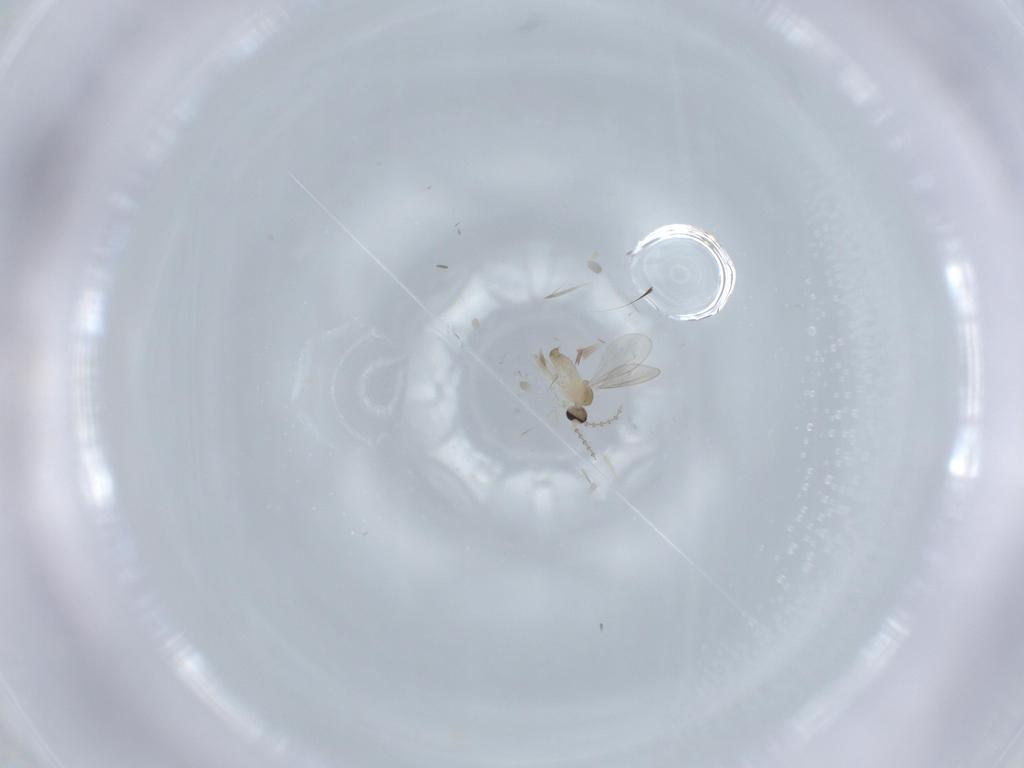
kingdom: Animalia
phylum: Arthropoda
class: Insecta
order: Diptera
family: Cecidomyiidae
